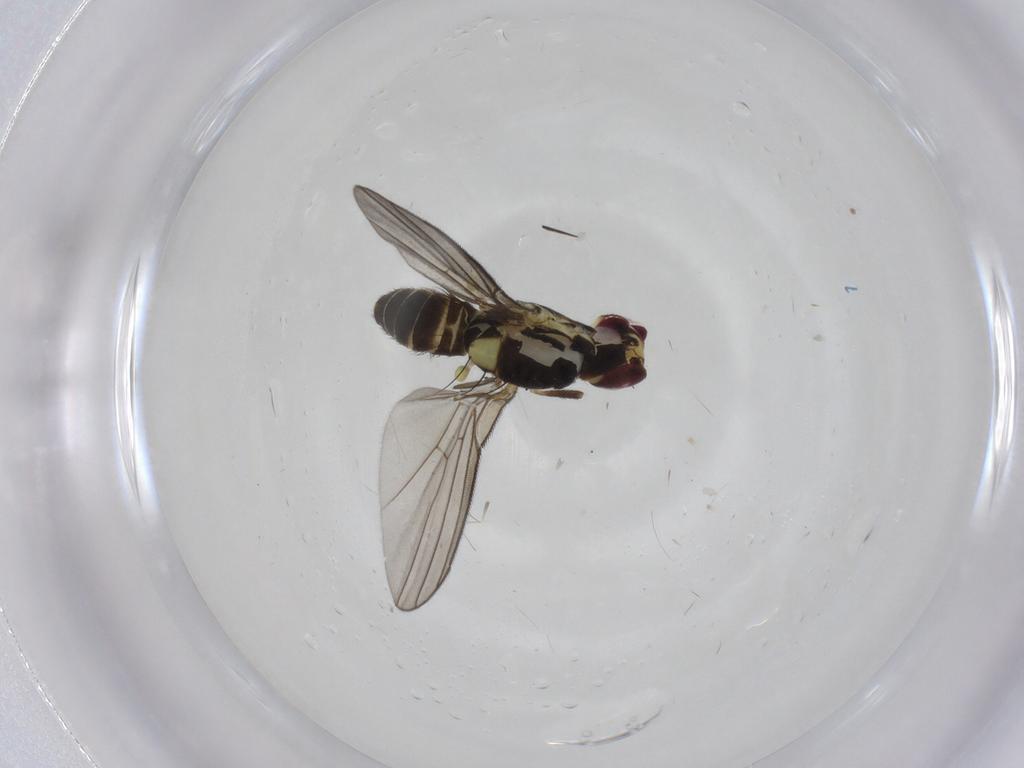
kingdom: Animalia
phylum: Arthropoda
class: Insecta
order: Diptera
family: Agromyzidae
